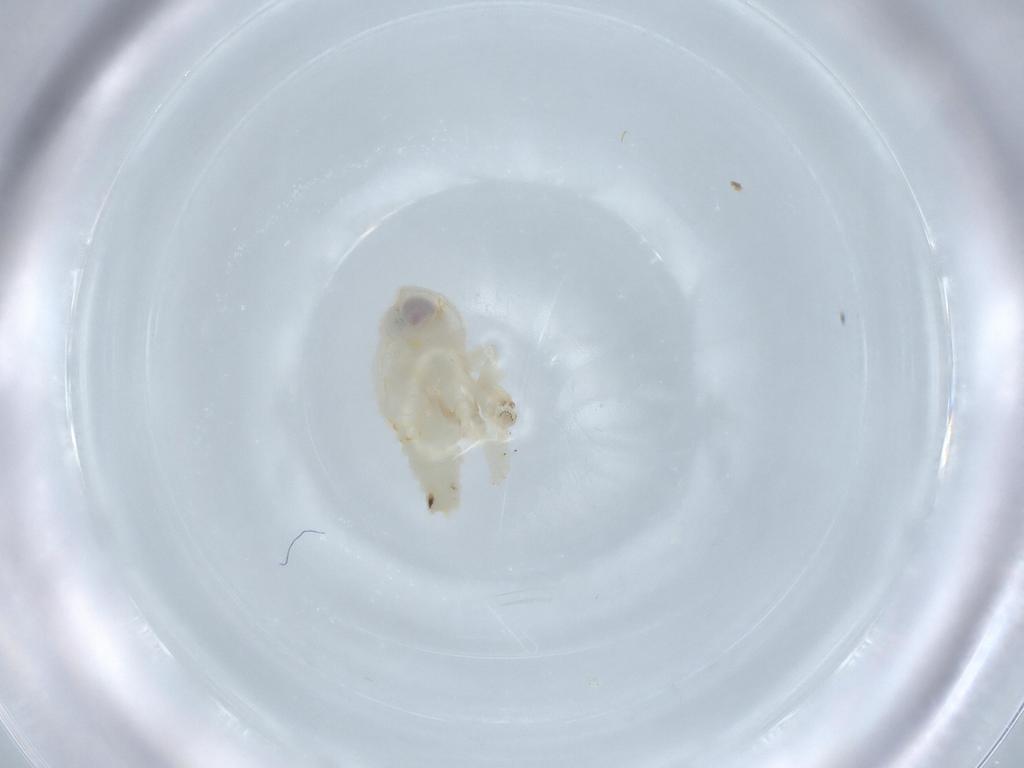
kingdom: Animalia
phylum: Arthropoda
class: Insecta
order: Hemiptera
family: Nogodinidae
